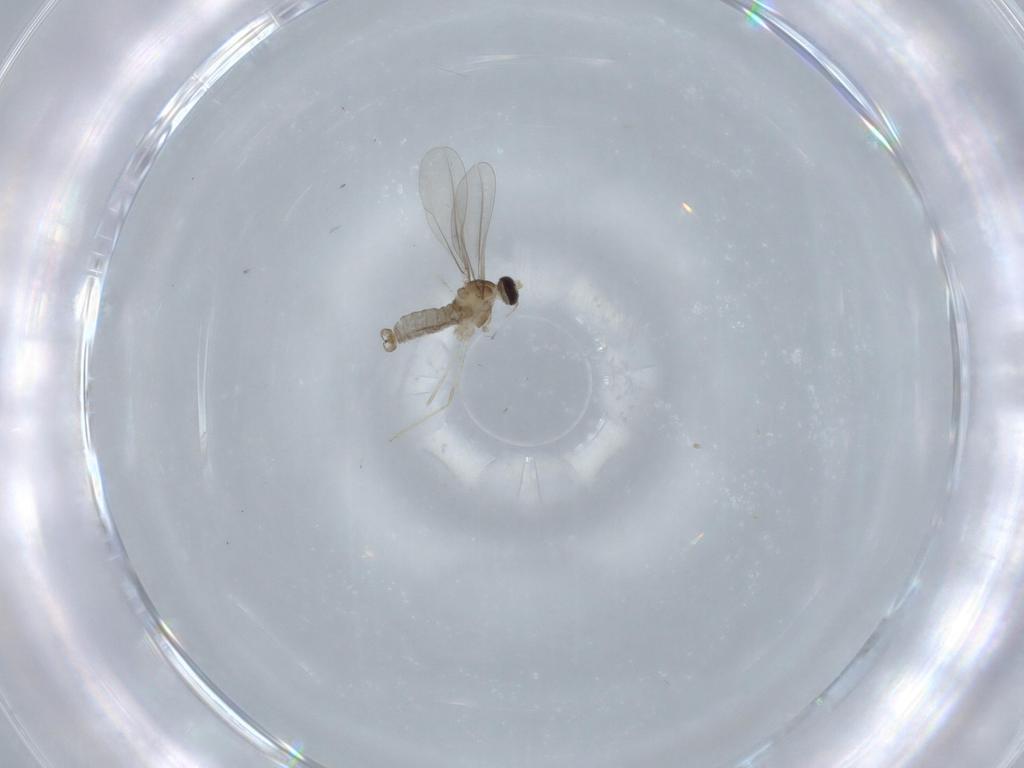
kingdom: Animalia
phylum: Arthropoda
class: Insecta
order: Diptera
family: Cecidomyiidae
